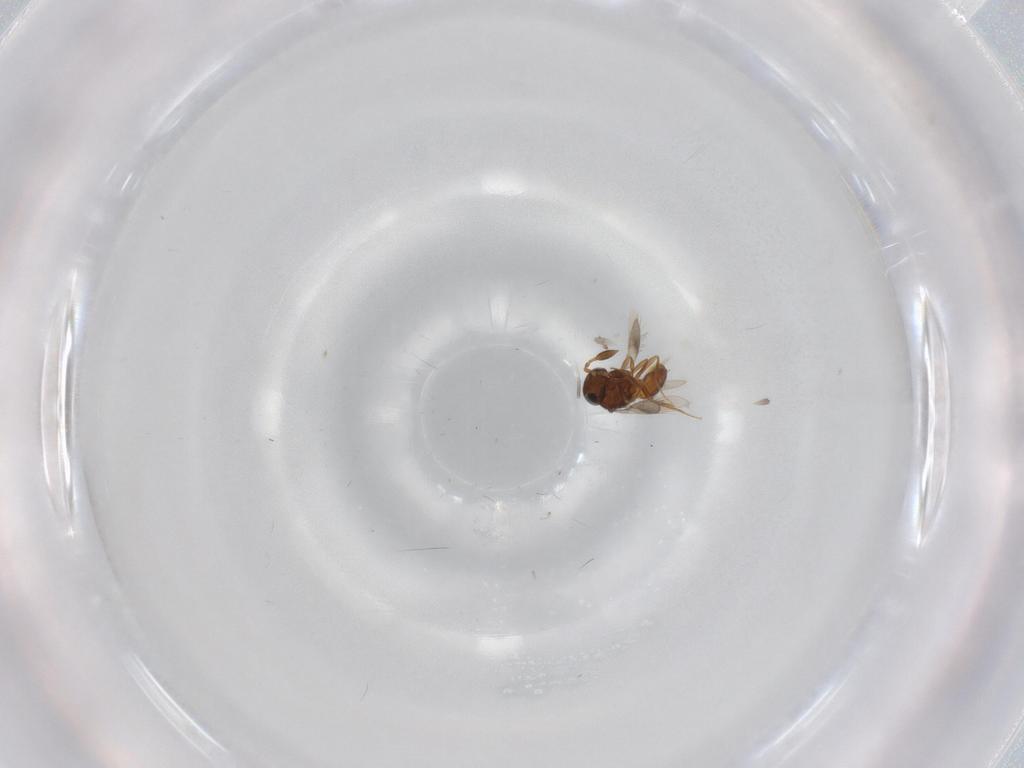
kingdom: Animalia
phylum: Arthropoda
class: Insecta
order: Hymenoptera
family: Scelionidae
